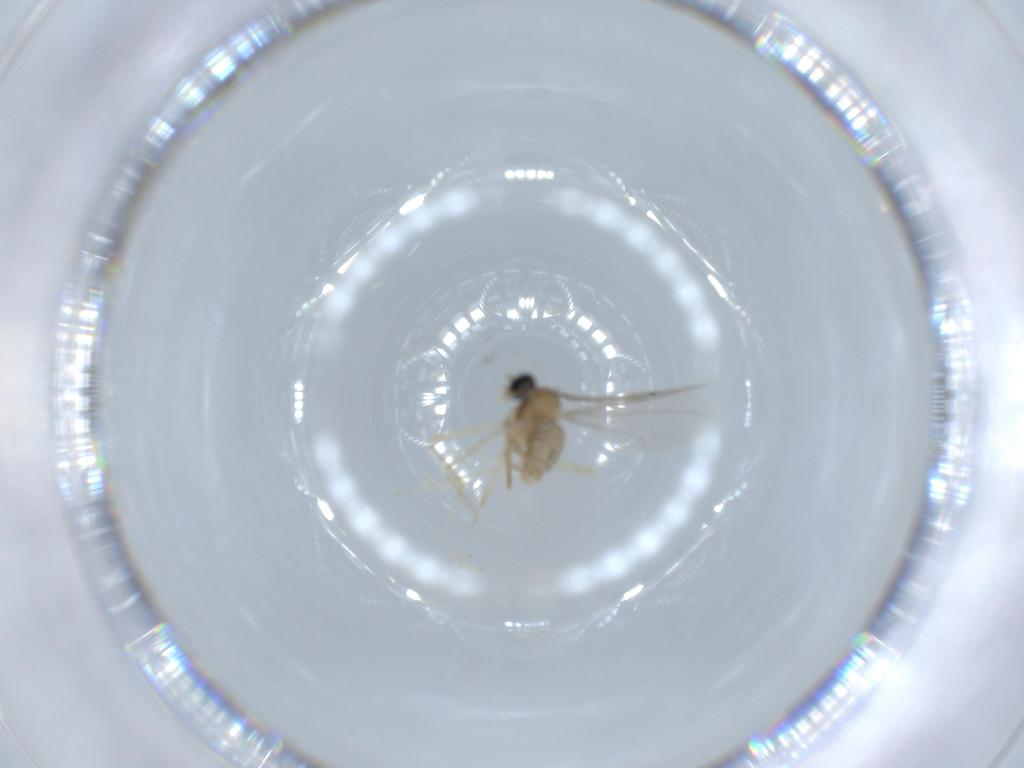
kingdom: Animalia
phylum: Arthropoda
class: Insecta
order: Diptera
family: Cecidomyiidae
